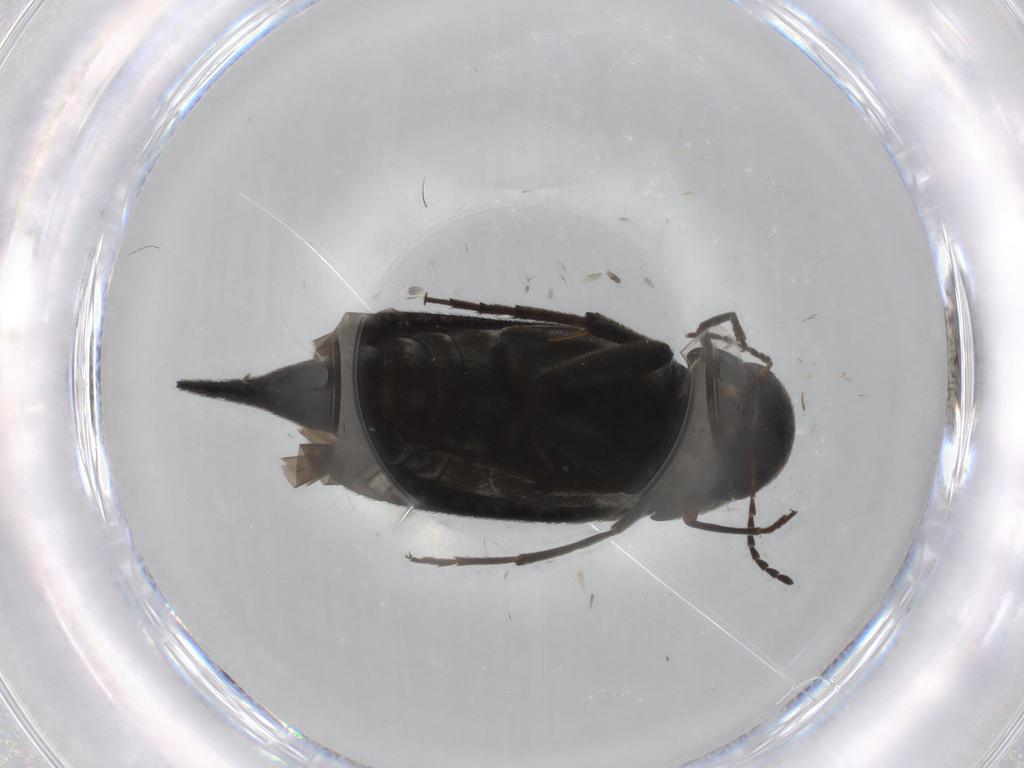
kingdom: Animalia
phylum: Arthropoda
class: Insecta
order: Coleoptera
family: Mordellidae
